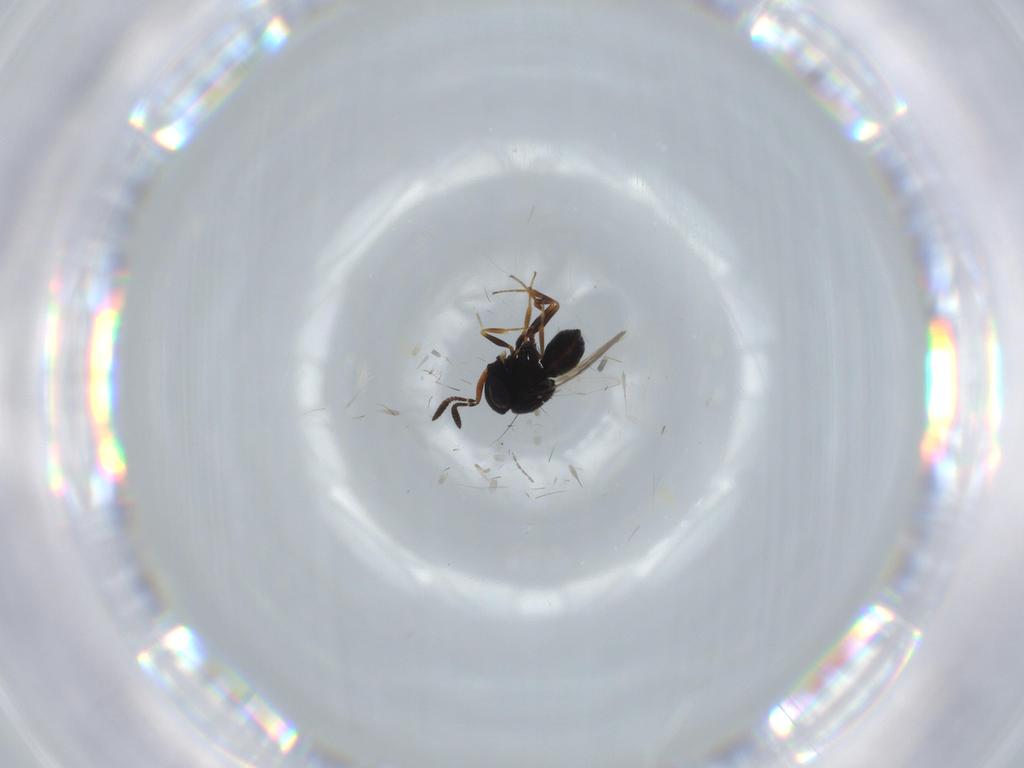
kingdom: Animalia
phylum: Arthropoda
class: Insecta
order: Hymenoptera
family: Scelionidae
